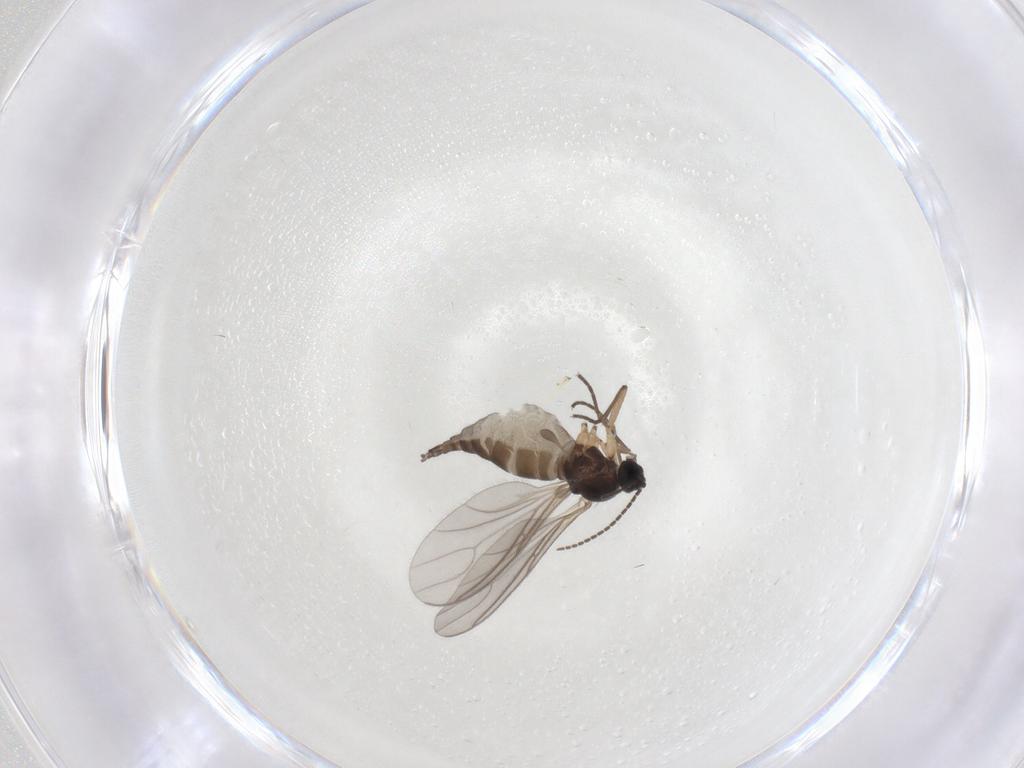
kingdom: Animalia
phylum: Arthropoda
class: Insecta
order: Diptera
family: Sciaridae
